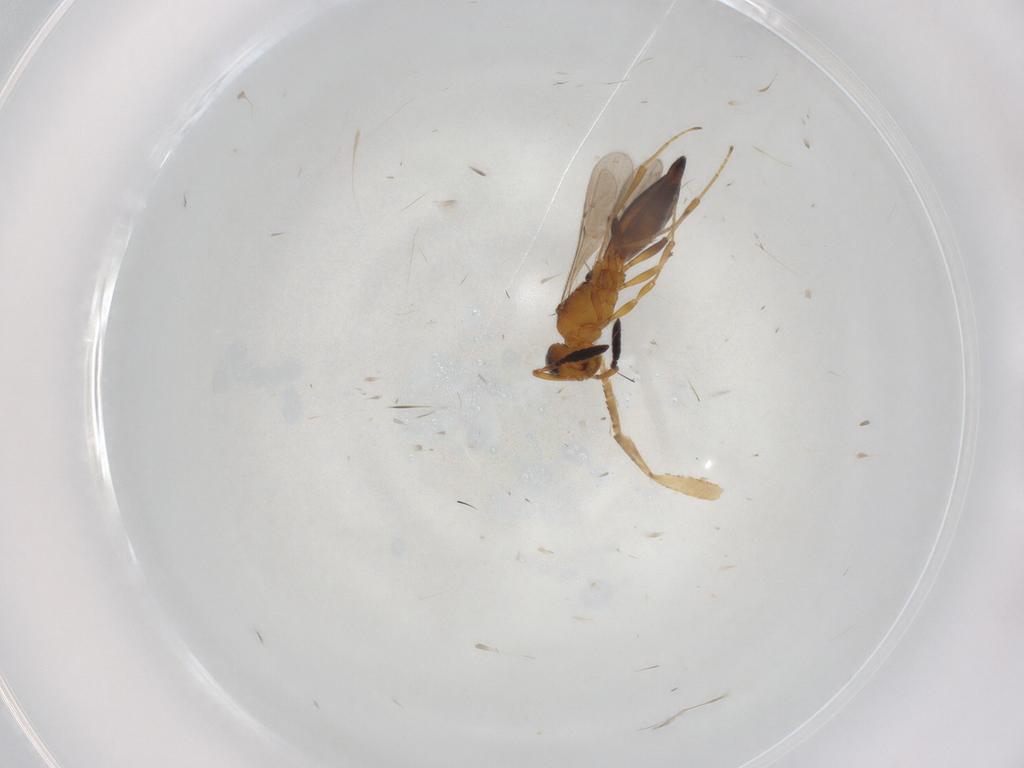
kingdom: Animalia
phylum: Arthropoda
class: Insecta
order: Hymenoptera
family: Scelionidae
